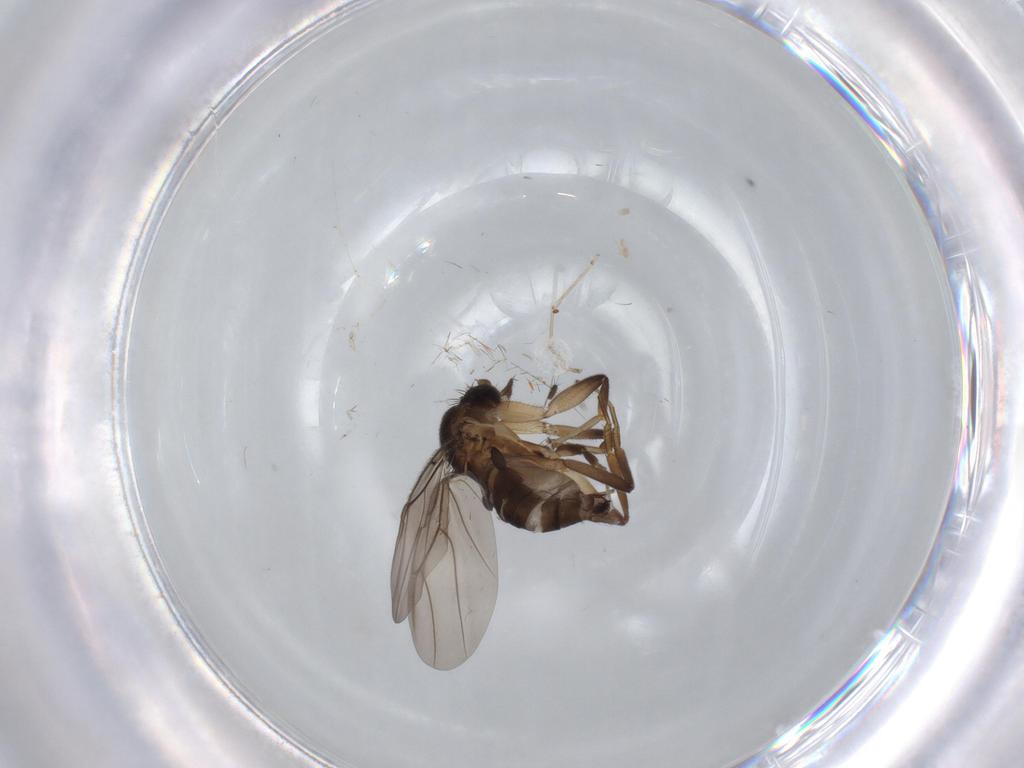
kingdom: Animalia
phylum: Arthropoda
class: Insecta
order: Diptera
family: Phoridae
